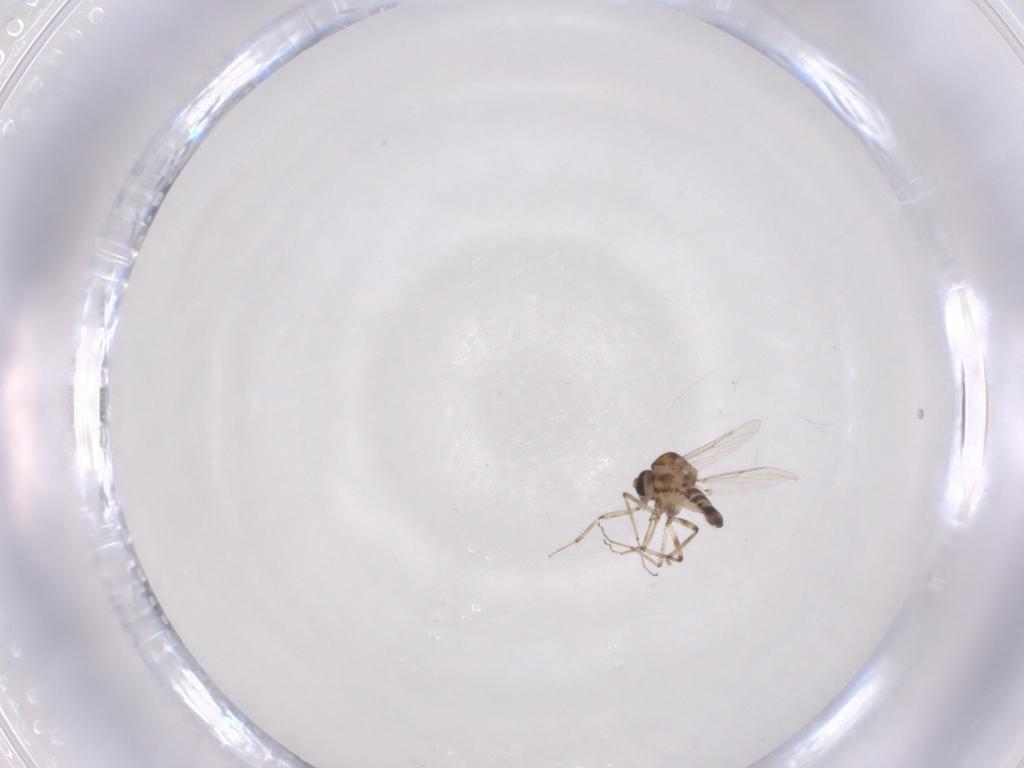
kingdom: Animalia
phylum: Arthropoda
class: Insecta
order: Diptera
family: Ceratopogonidae
